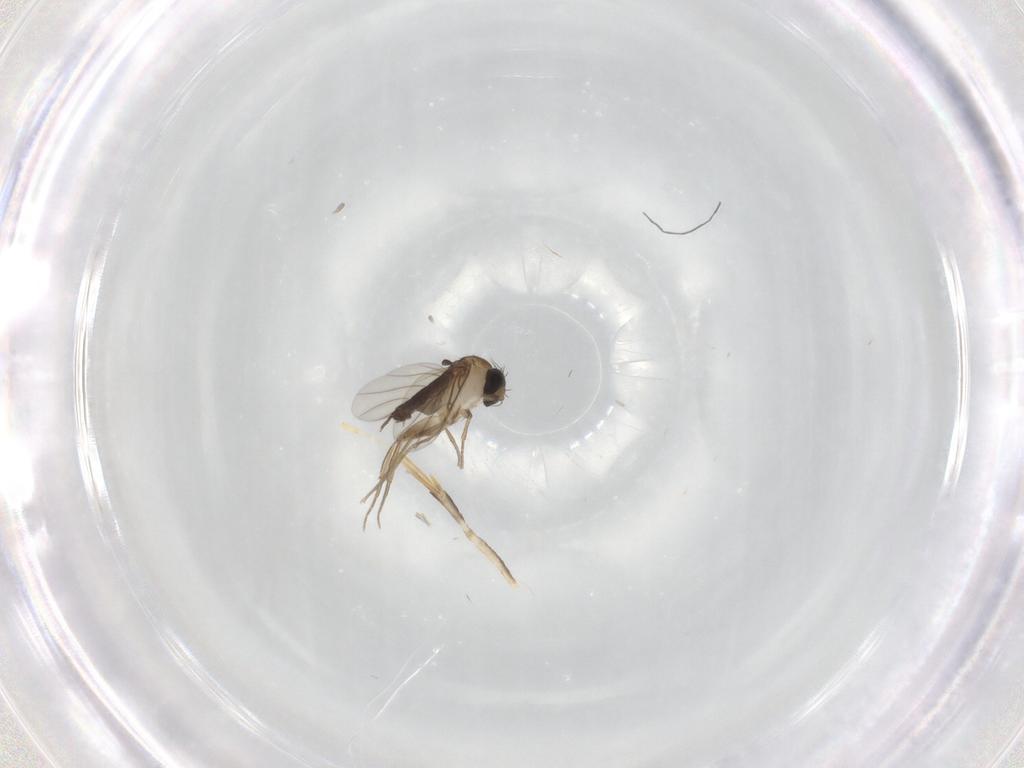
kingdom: Animalia
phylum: Arthropoda
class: Insecta
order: Diptera
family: Phoridae
